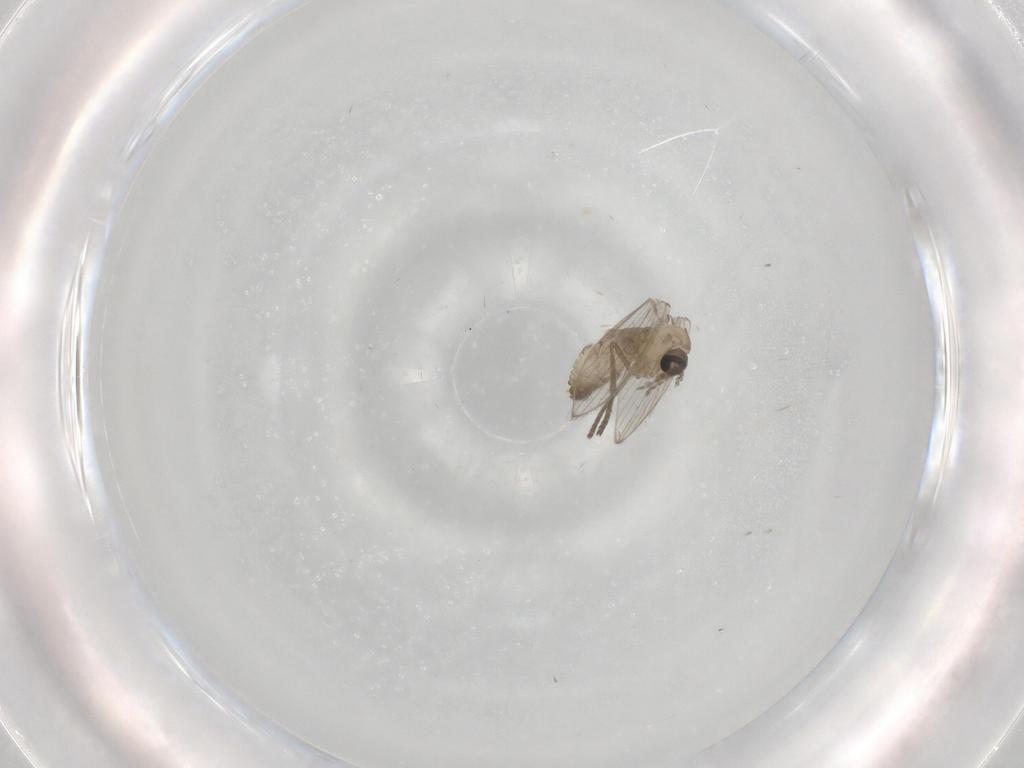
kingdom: Animalia
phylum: Arthropoda
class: Insecta
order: Diptera
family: Psychodidae
